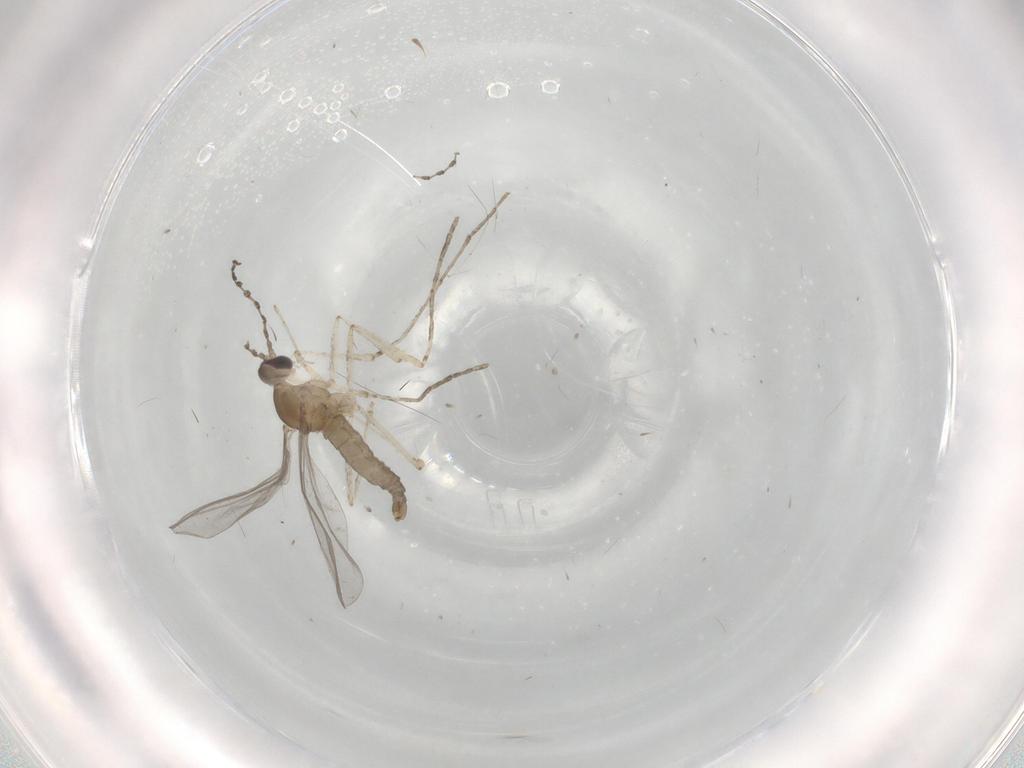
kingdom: Animalia
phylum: Arthropoda
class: Insecta
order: Diptera
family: Cecidomyiidae
